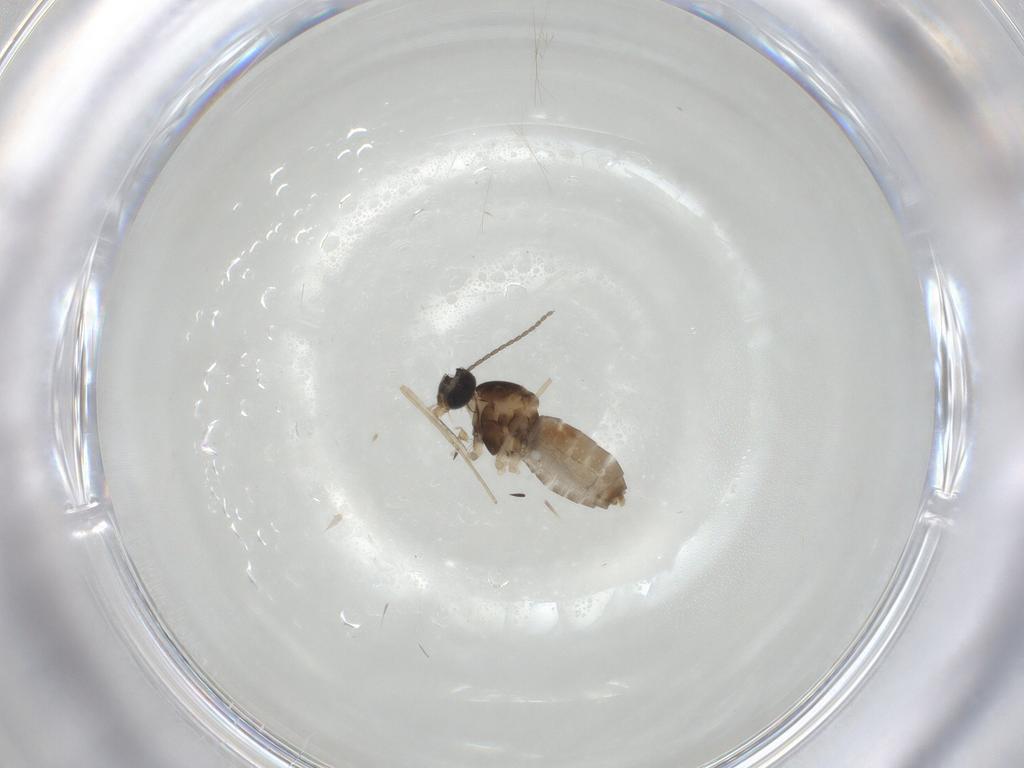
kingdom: Animalia
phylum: Arthropoda
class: Insecta
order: Diptera
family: Cecidomyiidae
